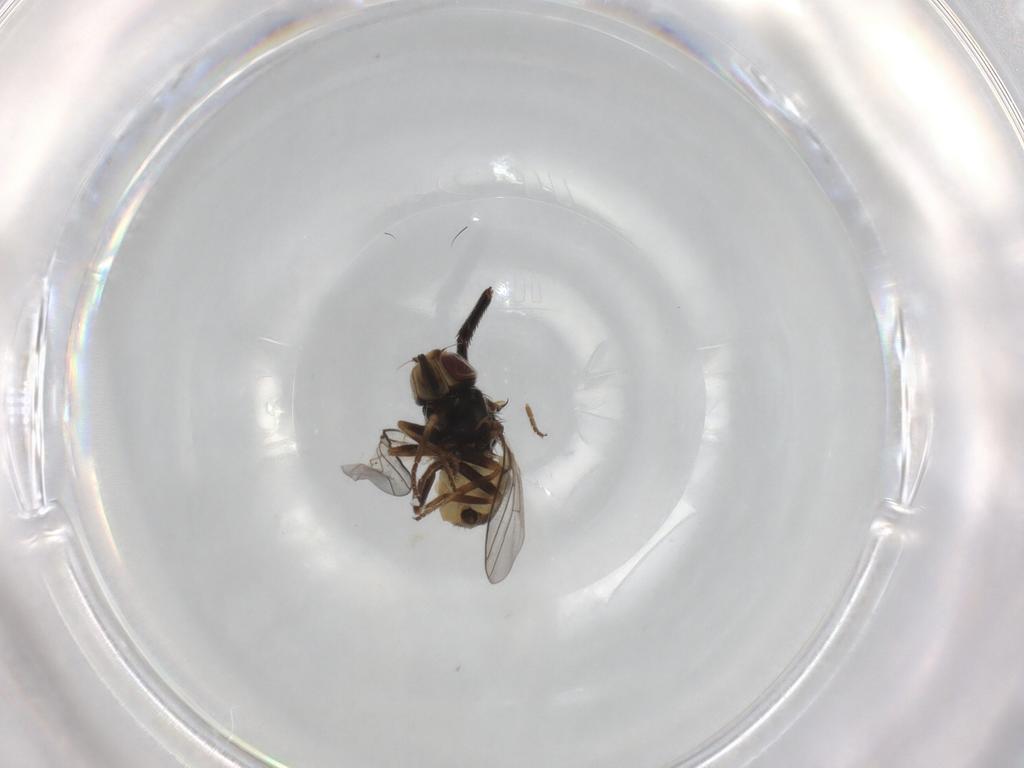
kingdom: Animalia
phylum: Arthropoda
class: Insecta
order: Diptera
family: Chloropidae
